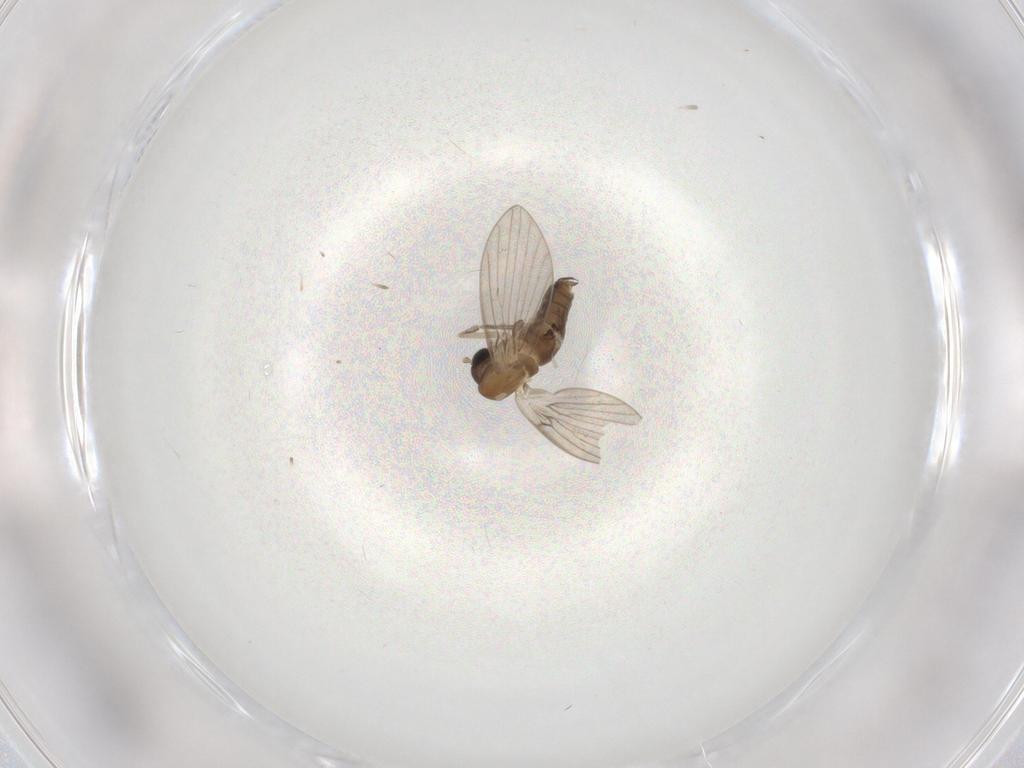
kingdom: Animalia
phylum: Arthropoda
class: Insecta
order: Diptera
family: Psychodidae
